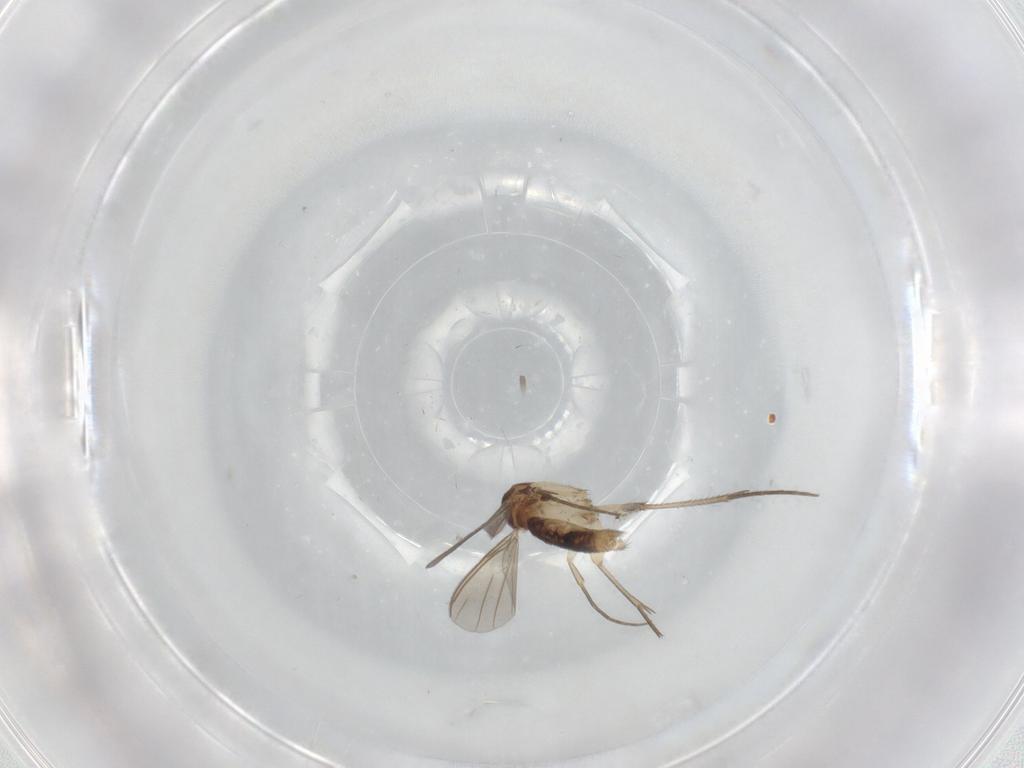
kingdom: Animalia
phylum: Arthropoda
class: Insecta
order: Diptera
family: Mycetophilidae
